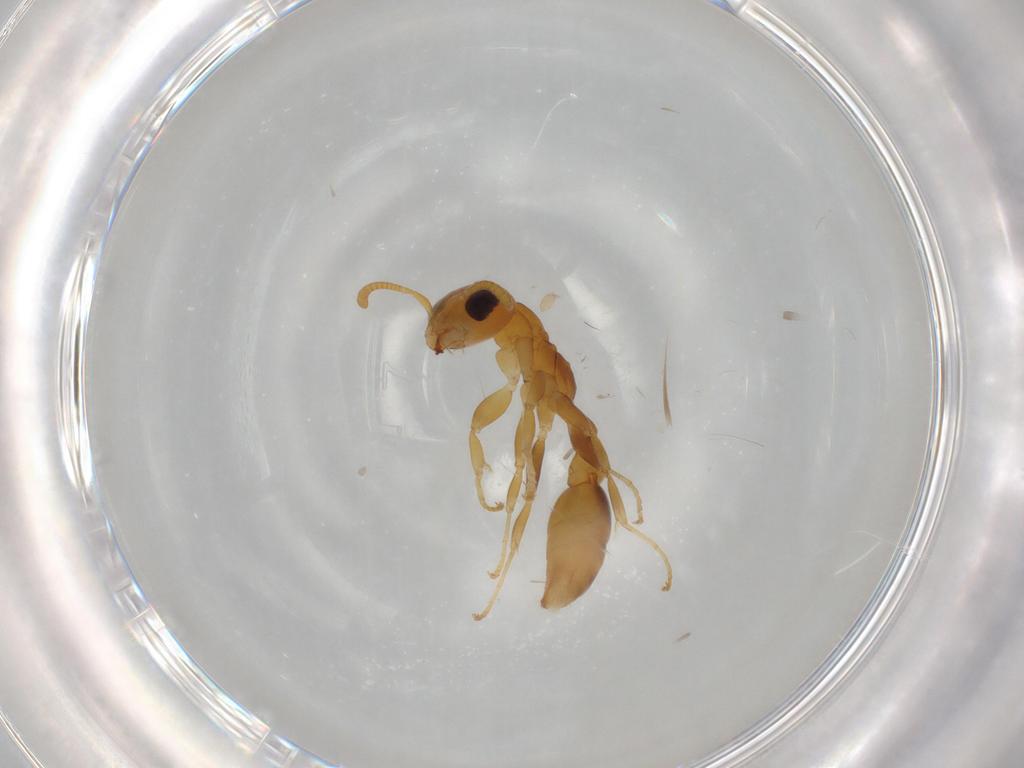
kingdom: Animalia
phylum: Arthropoda
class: Insecta
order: Hymenoptera
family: Formicidae
